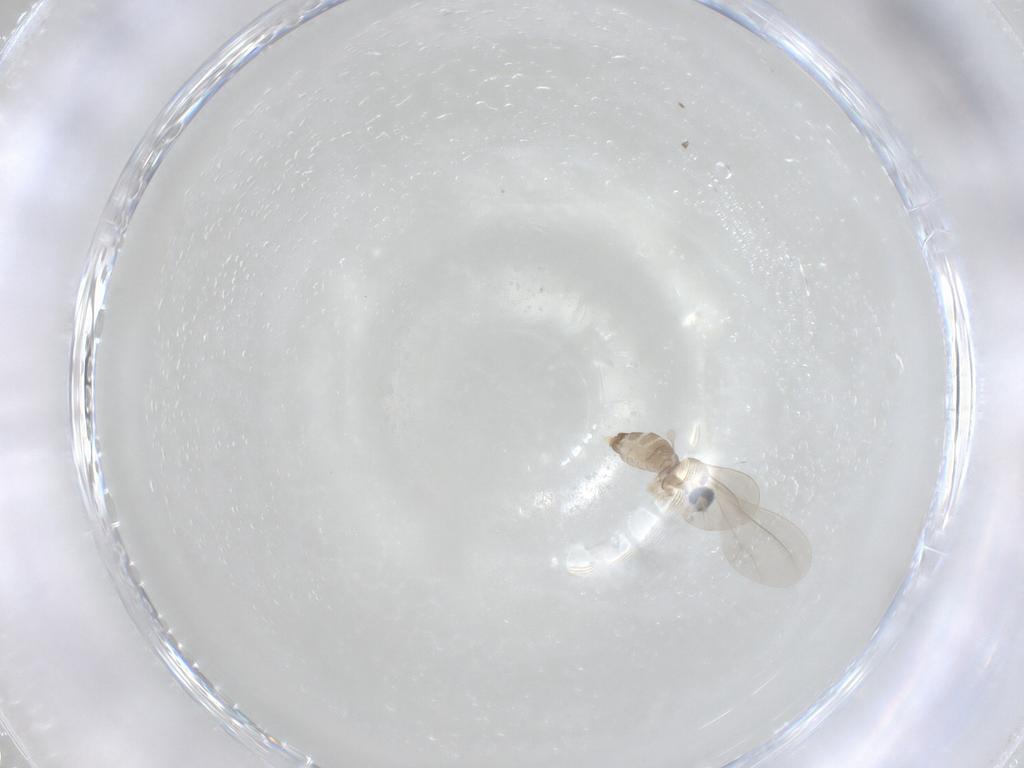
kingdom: Animalia
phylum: Arthropoda
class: Insecta
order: Diptera
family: Cecidomyiidae
